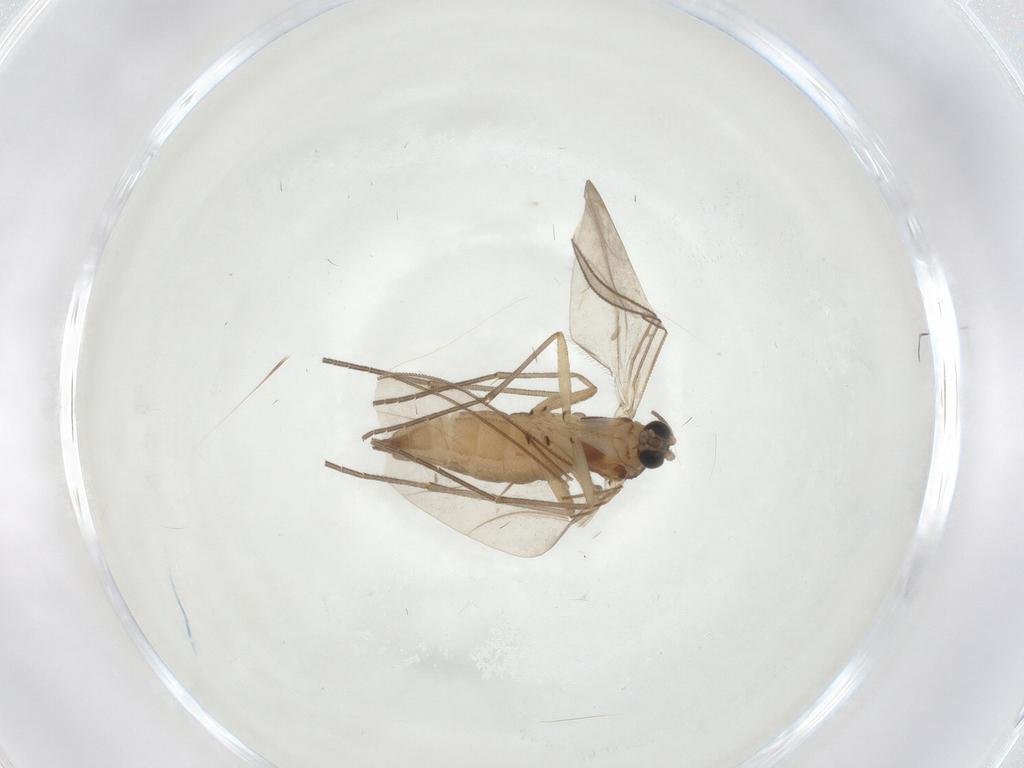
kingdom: Animalia
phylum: Arthropoda
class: Insecta
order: Diptera
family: Sciaridae
